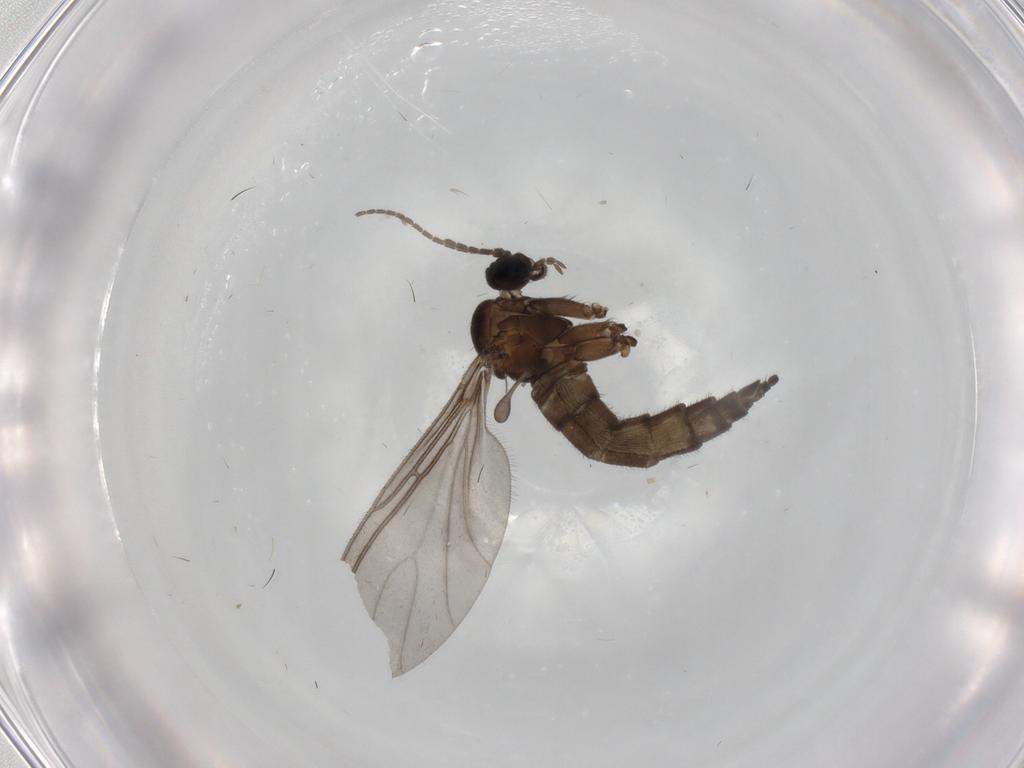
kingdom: Animalia
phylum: Arthropoda
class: Insecta
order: Diptera
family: Sciaridae
